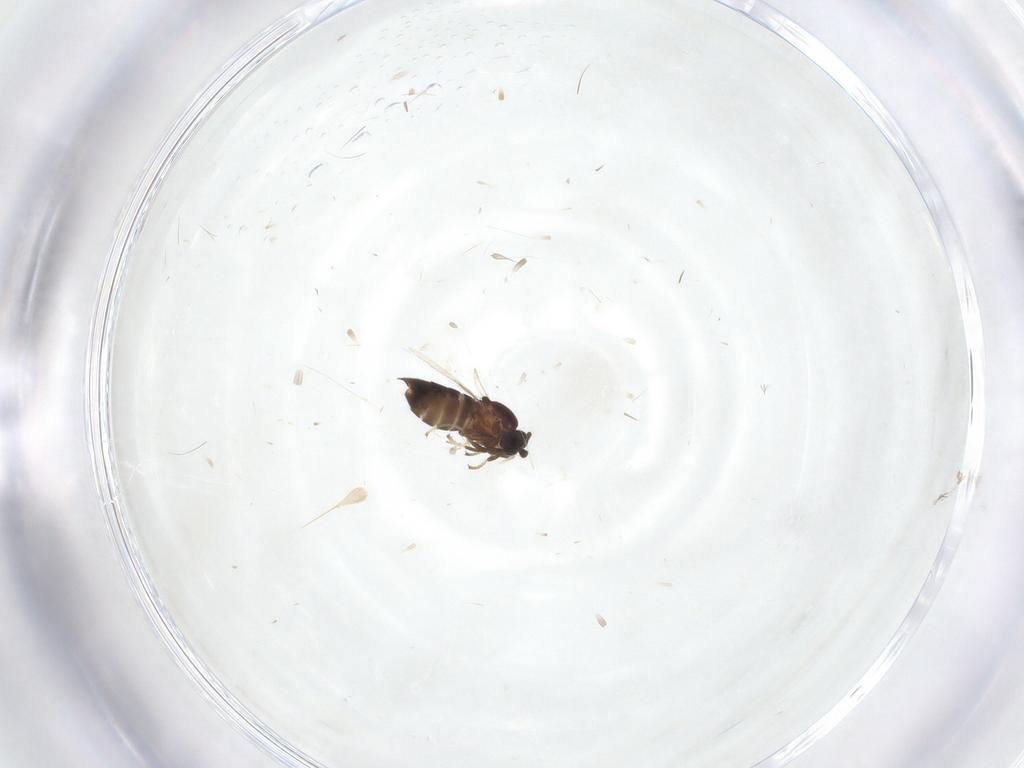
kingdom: Animalia
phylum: Arthropoda
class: Insecta
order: Diptera
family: Scatopsidae
